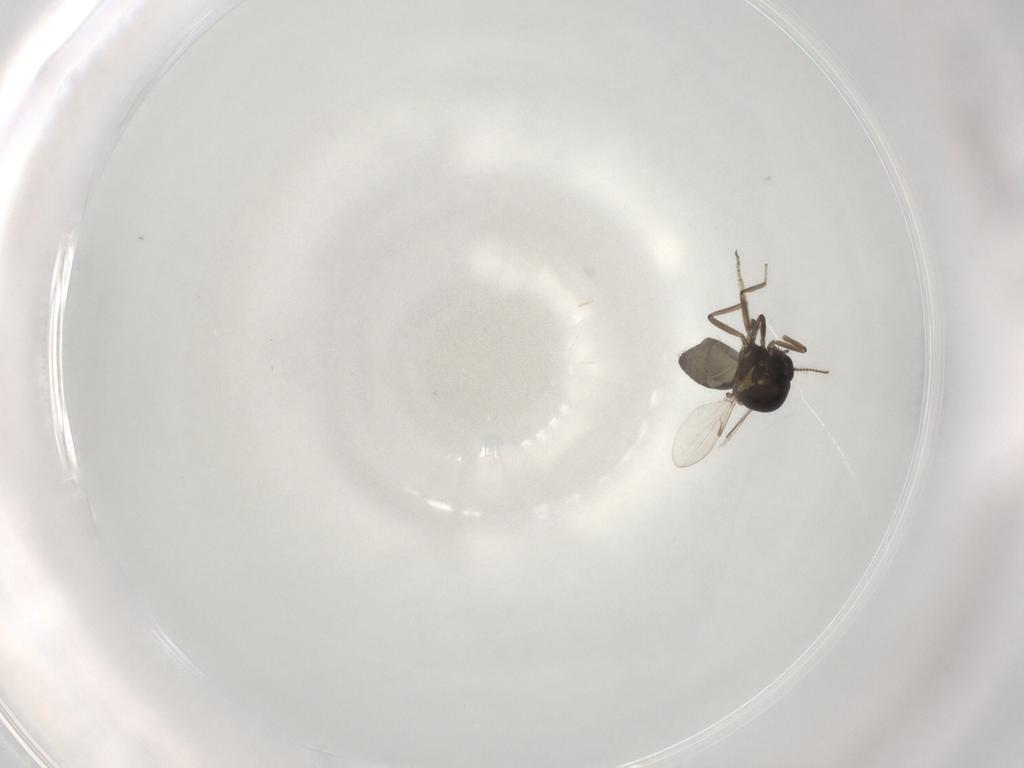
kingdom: Animalia
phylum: Arthropoda
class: Insecta
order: Diptera
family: Ceratopogonidae
